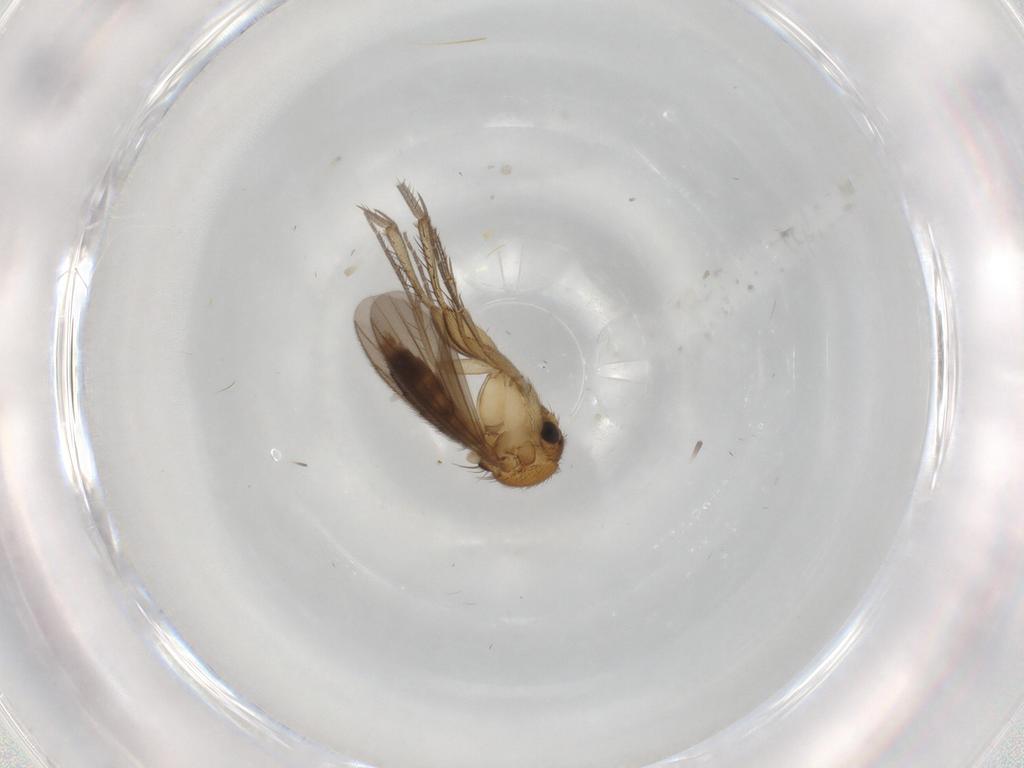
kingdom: Animalia
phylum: Arthropoda
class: Insecta
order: Diptera
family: Mycetophilidae
